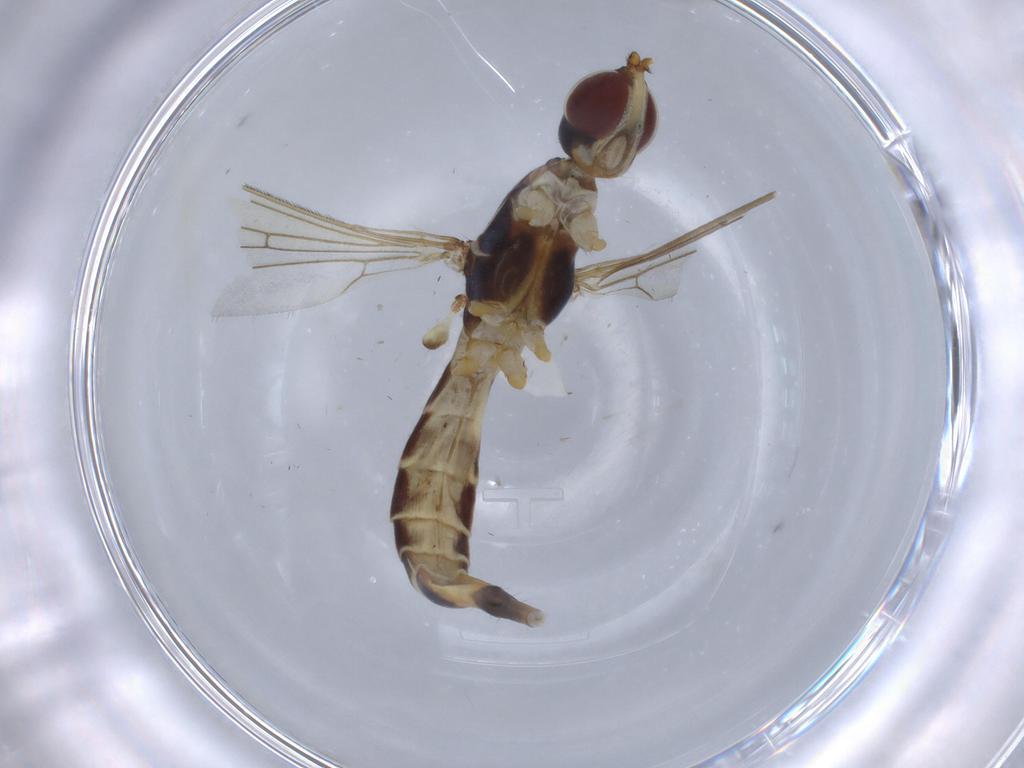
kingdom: Animalia
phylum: Arthropoda
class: Insecta
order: Diptera
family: Micropezidae
